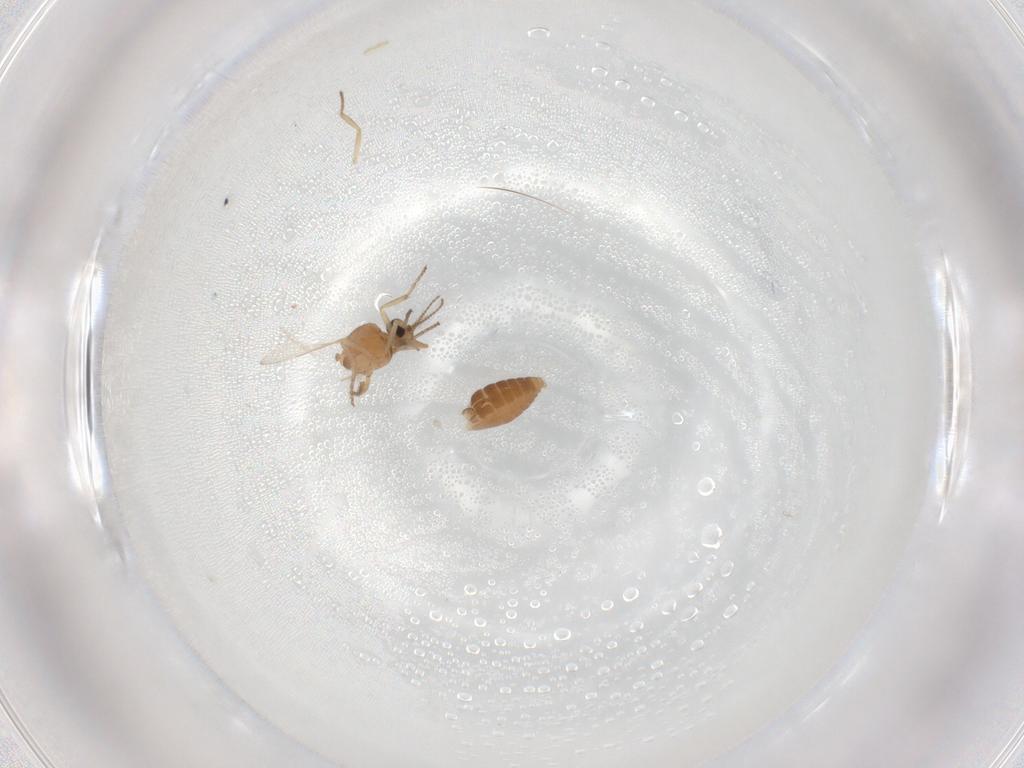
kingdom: Animalia
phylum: Arthropoda
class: Insecta
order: Diptera
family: Ceratopogonidae
